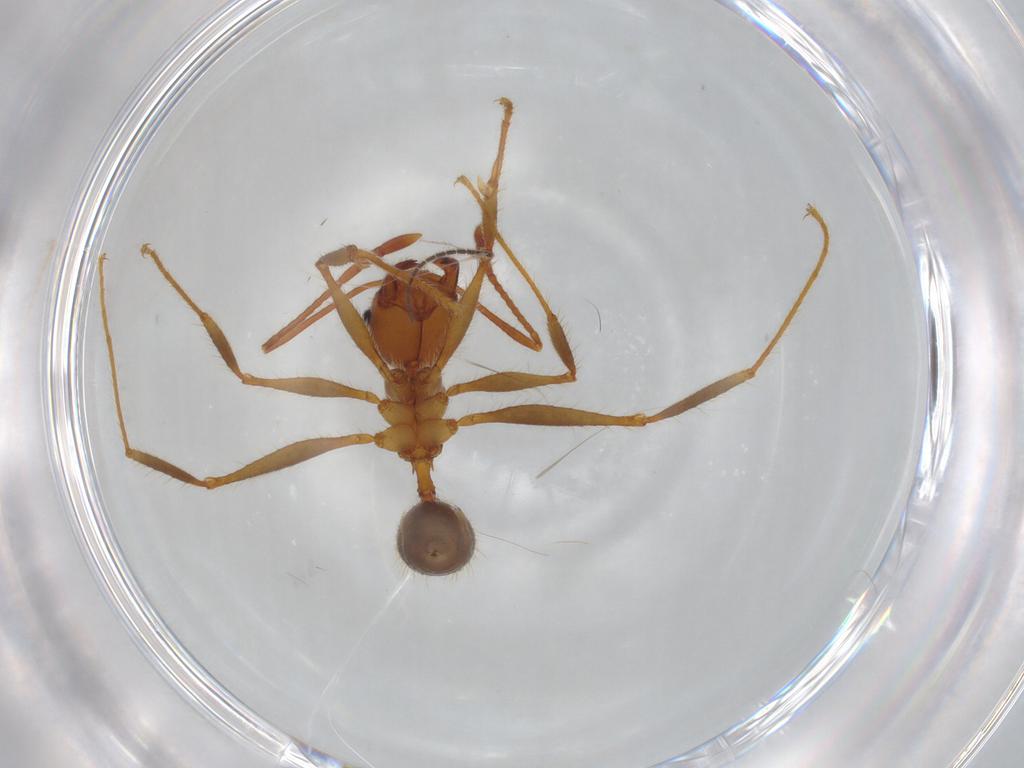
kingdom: Animalia
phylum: Arthropoda
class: Insecta
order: Hymenoptera
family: Formicidae
